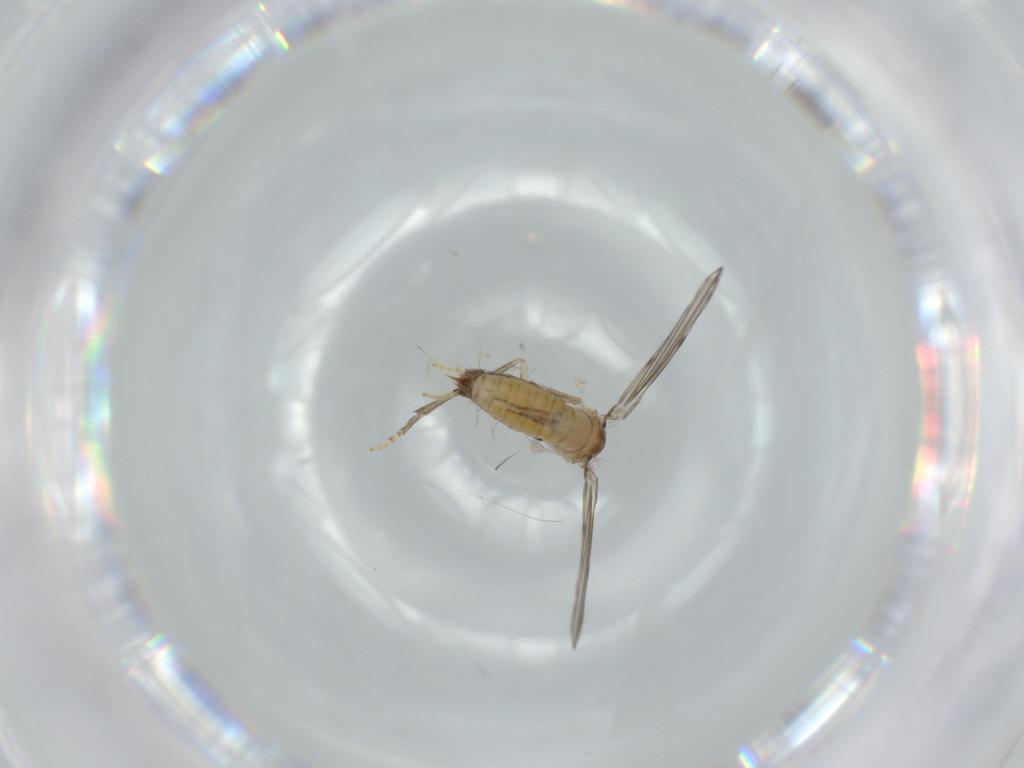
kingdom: Animalia
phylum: Arthropoda
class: Insecta
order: Diptera
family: Psychodidae
